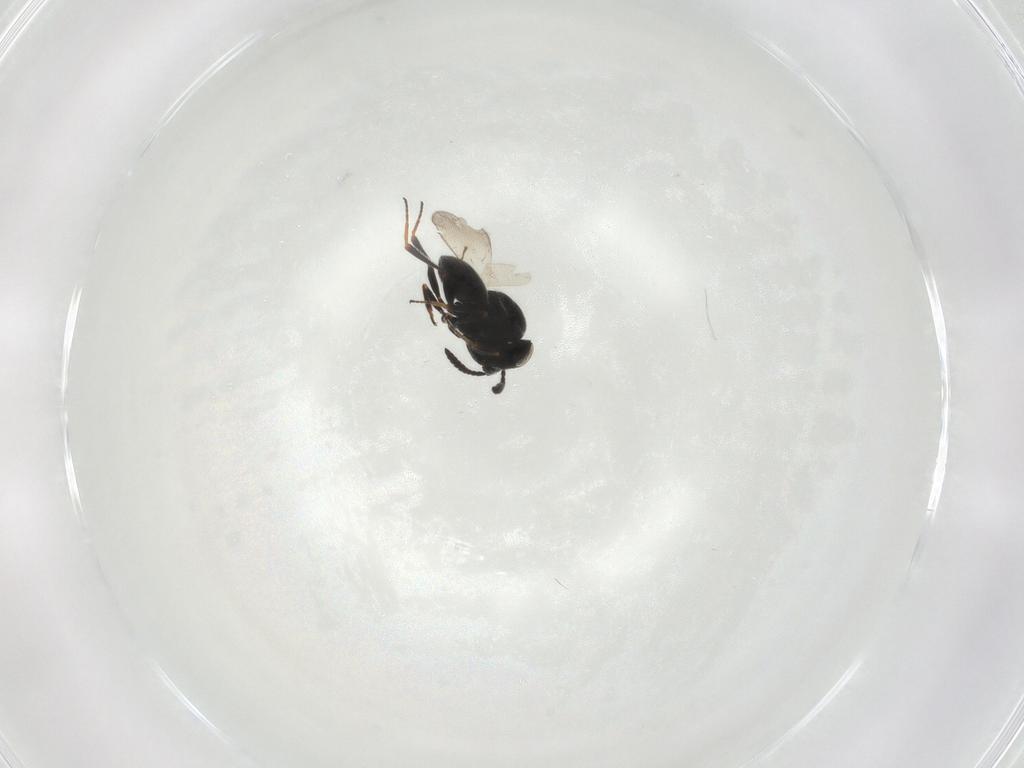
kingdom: Animalia
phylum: Arthropoda
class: Insecta
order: Hymenoptera
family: Scelionidae
